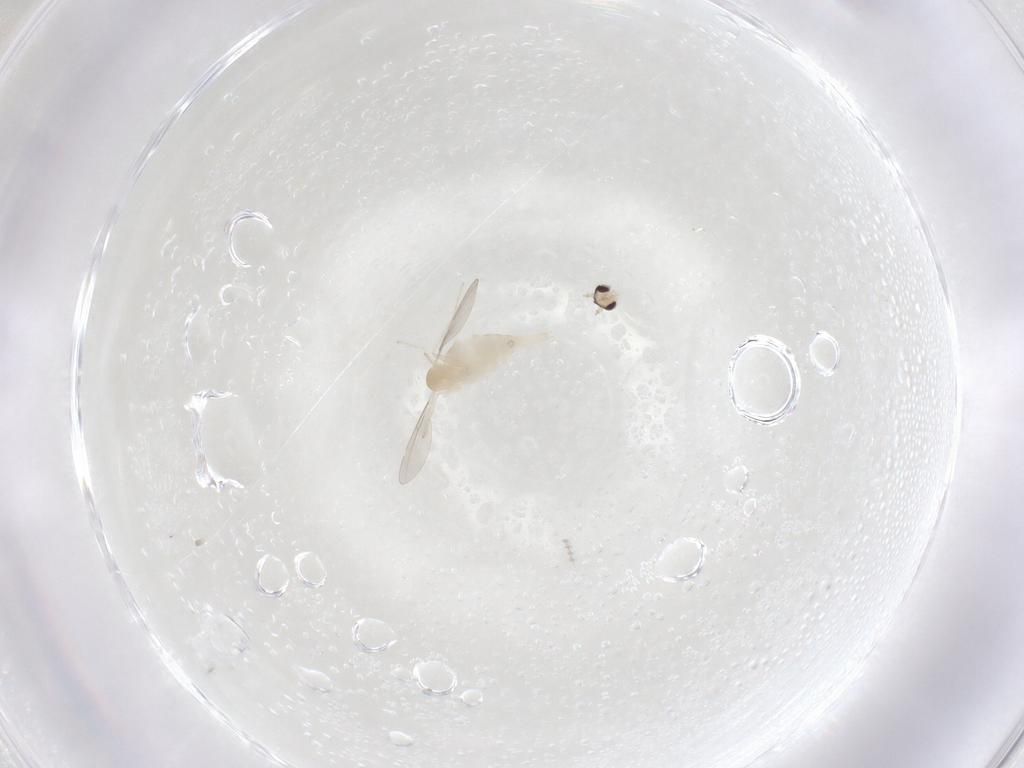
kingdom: Animalia
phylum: Arthropoda
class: Insecta
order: Diptera
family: Cecidomyiidae
